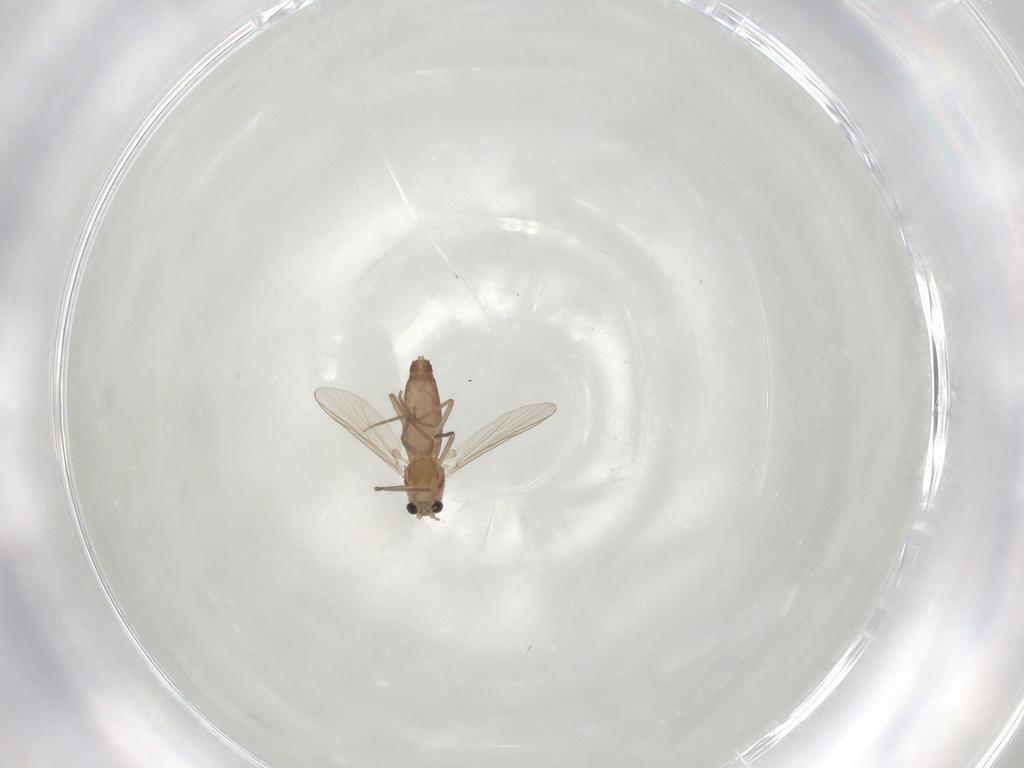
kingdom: Animalia
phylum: Arthropoda
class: Insecta
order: Diptera
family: Chironomidae
